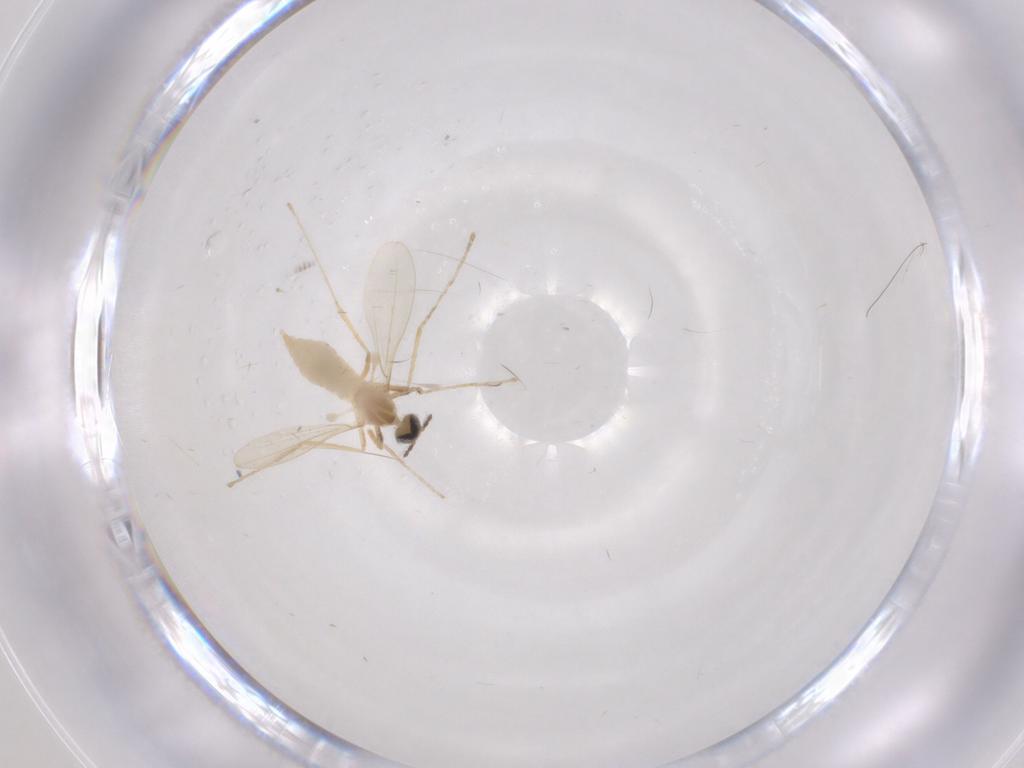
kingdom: Animalia
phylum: Arthropoda
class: Insecta
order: Diptera
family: Cecidomyiidae
